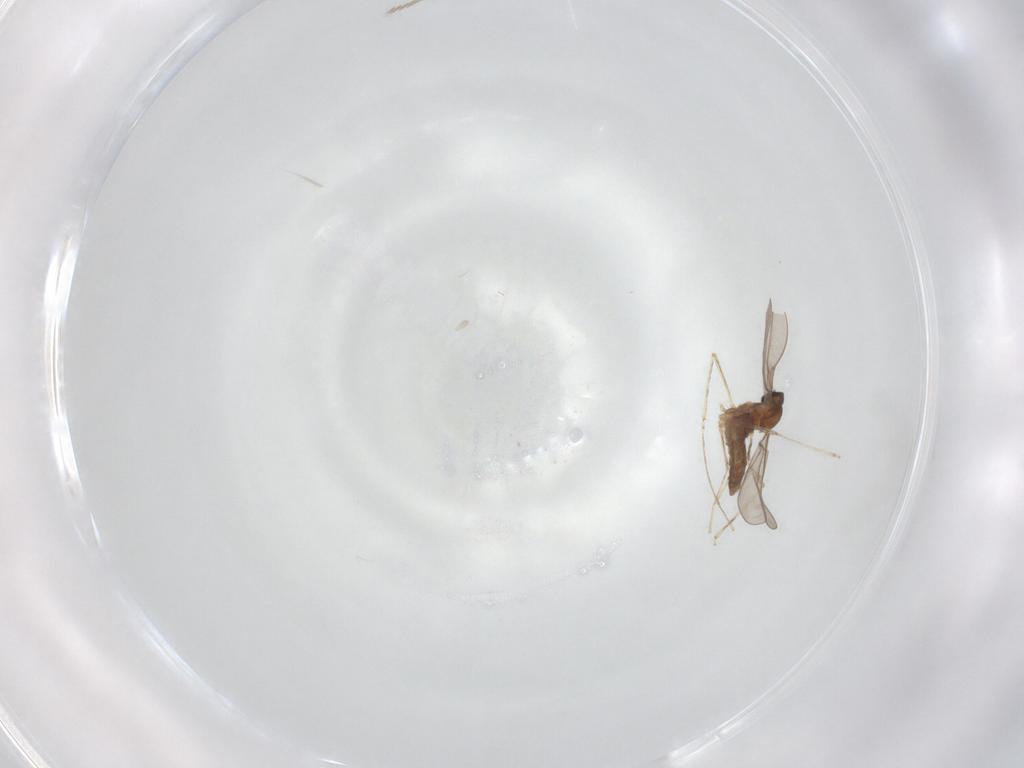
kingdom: Animalia
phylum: Arthropoda
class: Insecta
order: Diptera
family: Cecidomyiidae
